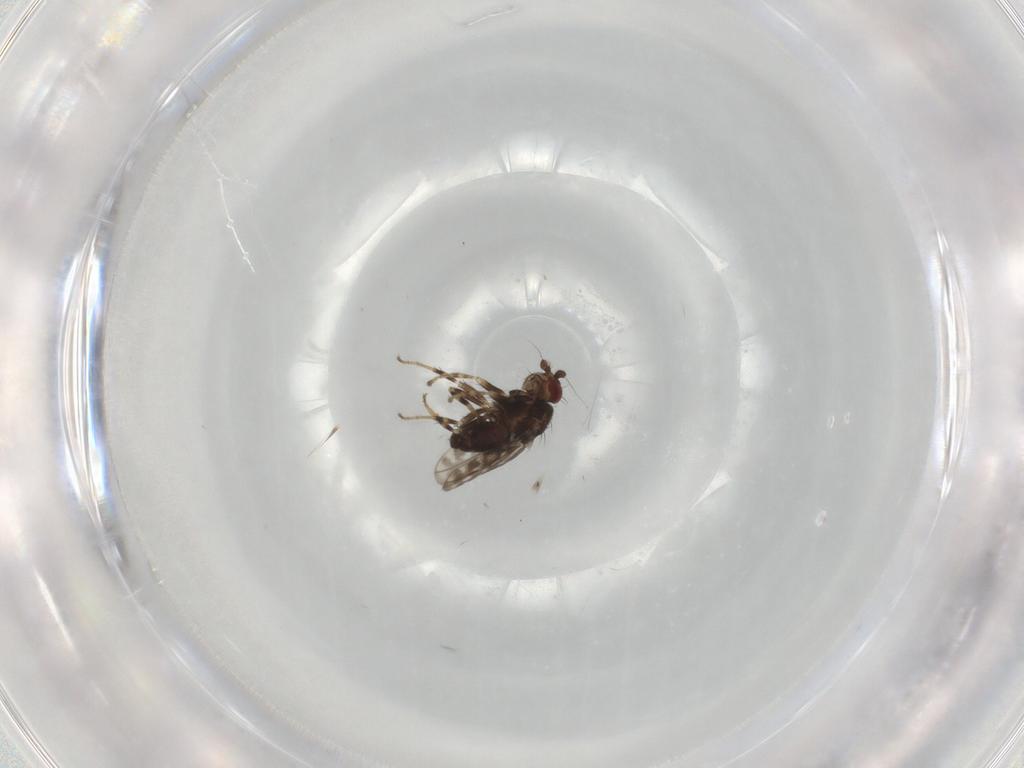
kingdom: Animalia
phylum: Arthropoda
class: Insecta
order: Diptera
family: Sphaeroceridae
